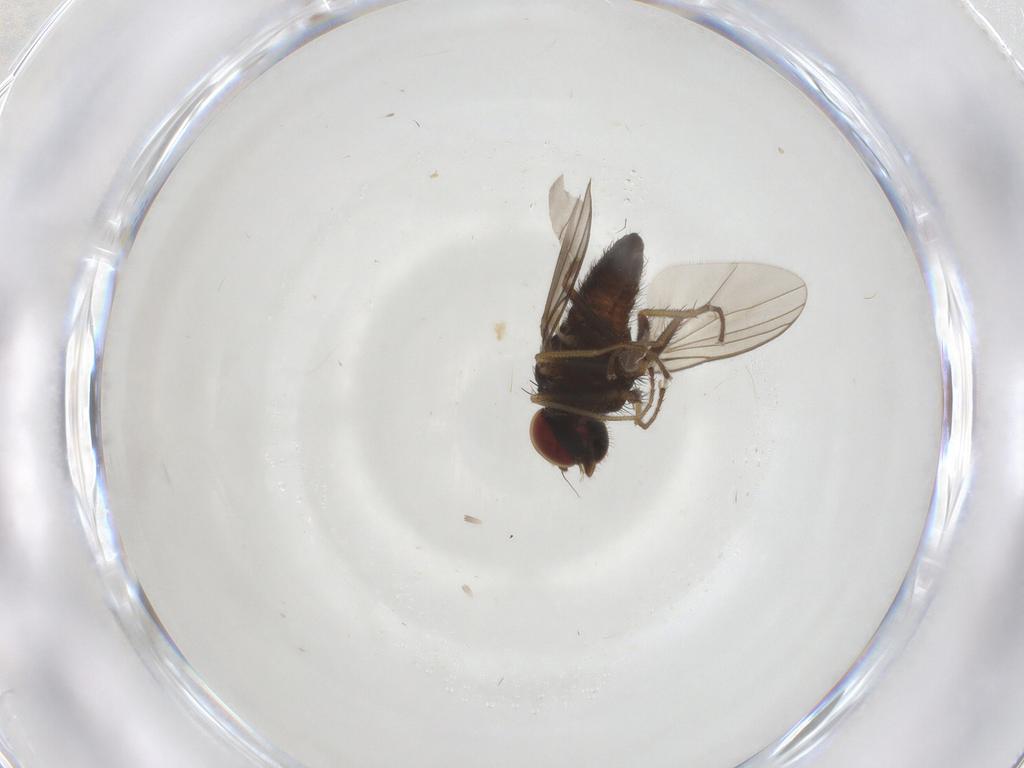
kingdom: Animalia
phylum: Arthropoda
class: Insecta
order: Diptera
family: Dolichopodidae
